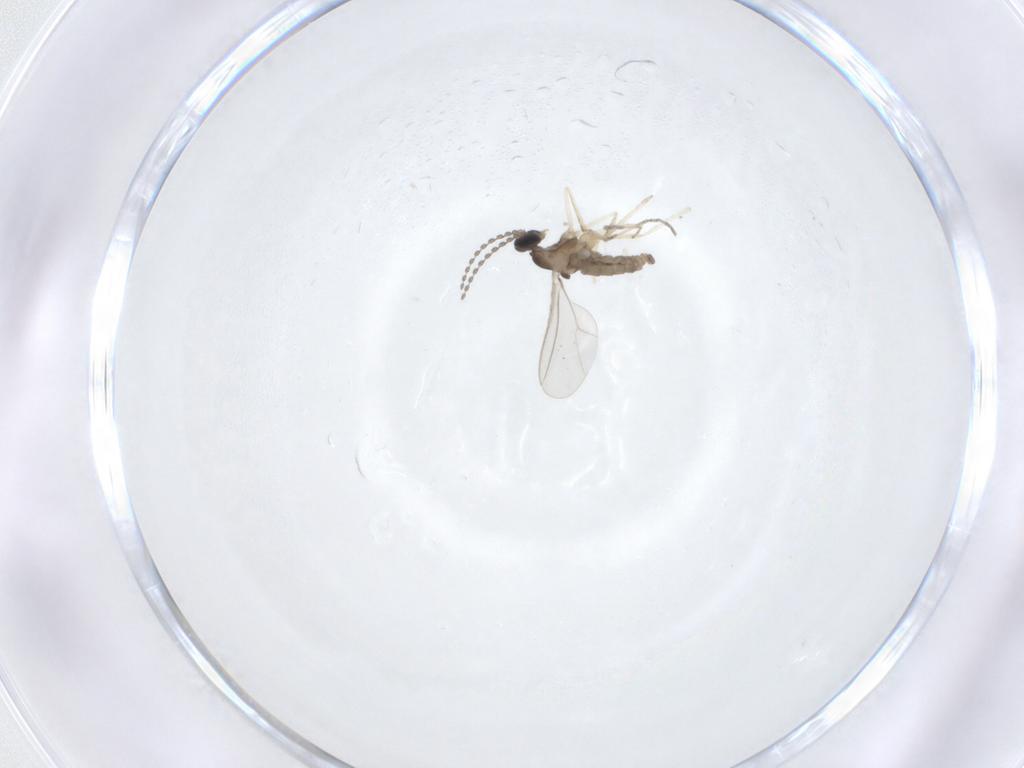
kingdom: Animalia
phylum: Arthropoda
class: Insecta
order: Diptera
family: Cecidomyiidae
